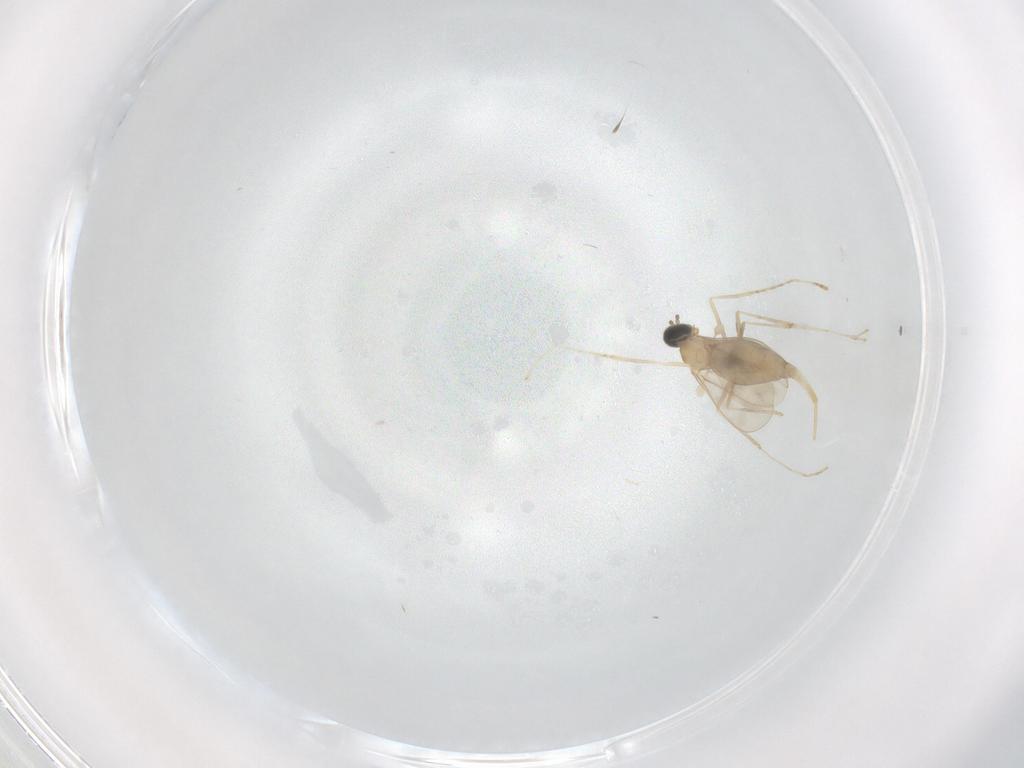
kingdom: Animalia
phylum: Arthropoda
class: Insecta
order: Diptera
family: Cecidomyiidae
